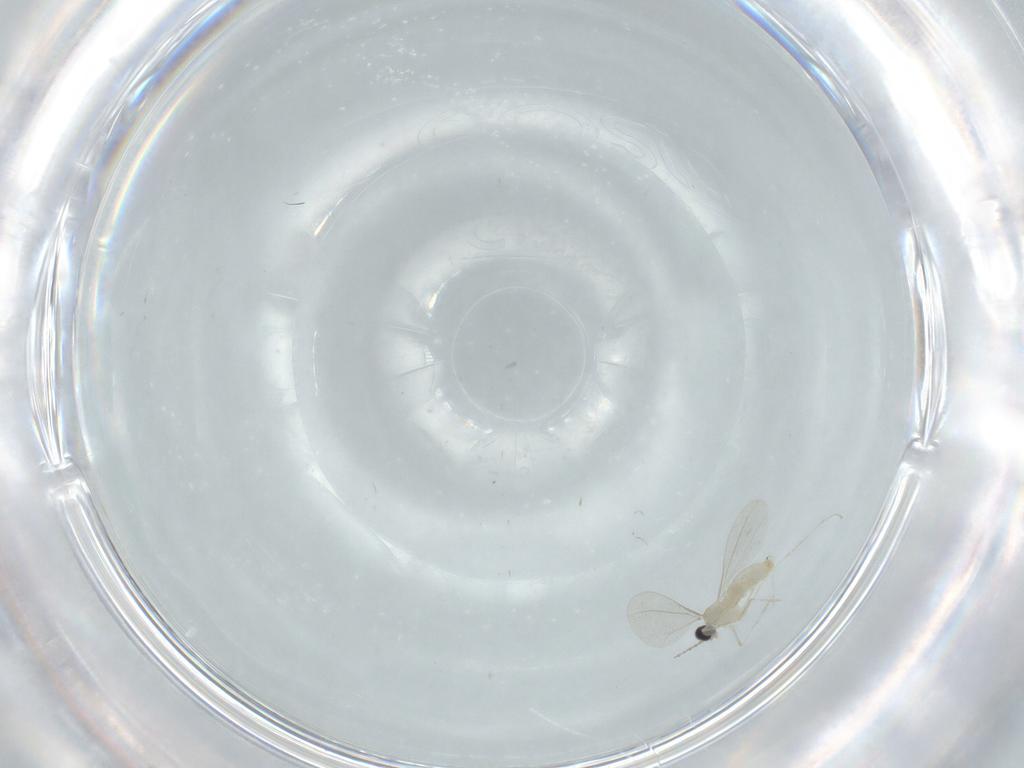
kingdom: Animalia
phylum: Arthropoda
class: Insecta
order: Diptera
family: Cecidomyiidae
